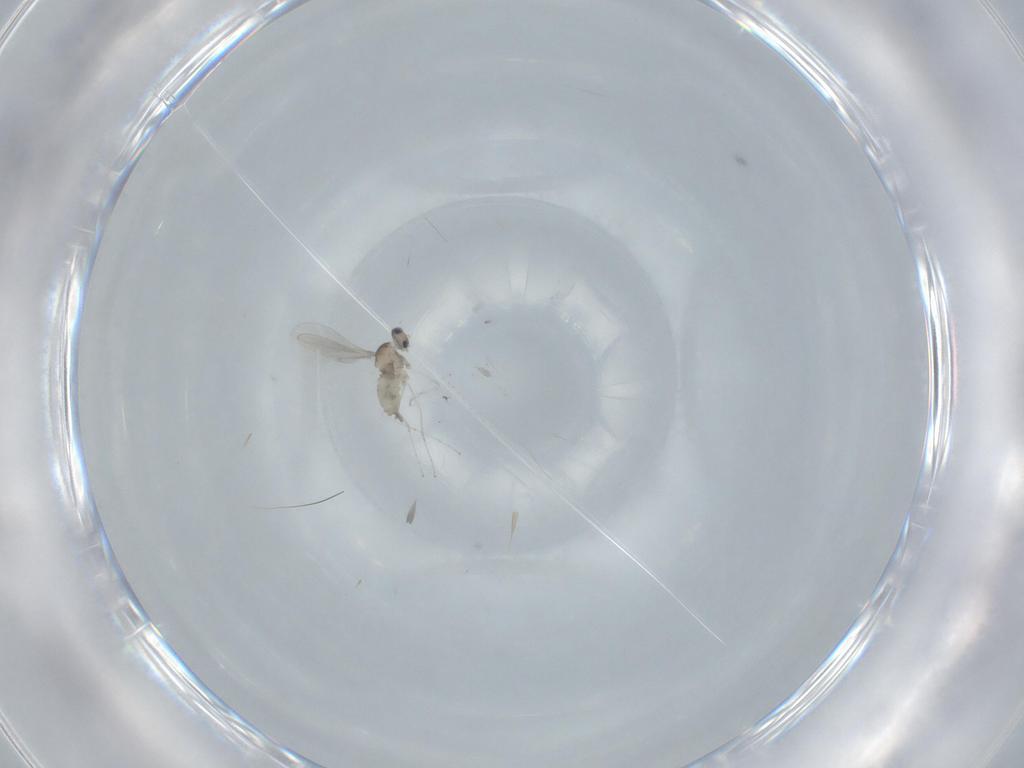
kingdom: Animalia
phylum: Arthropoda
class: Insecta
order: Diptera
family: Cecidomyiidae
